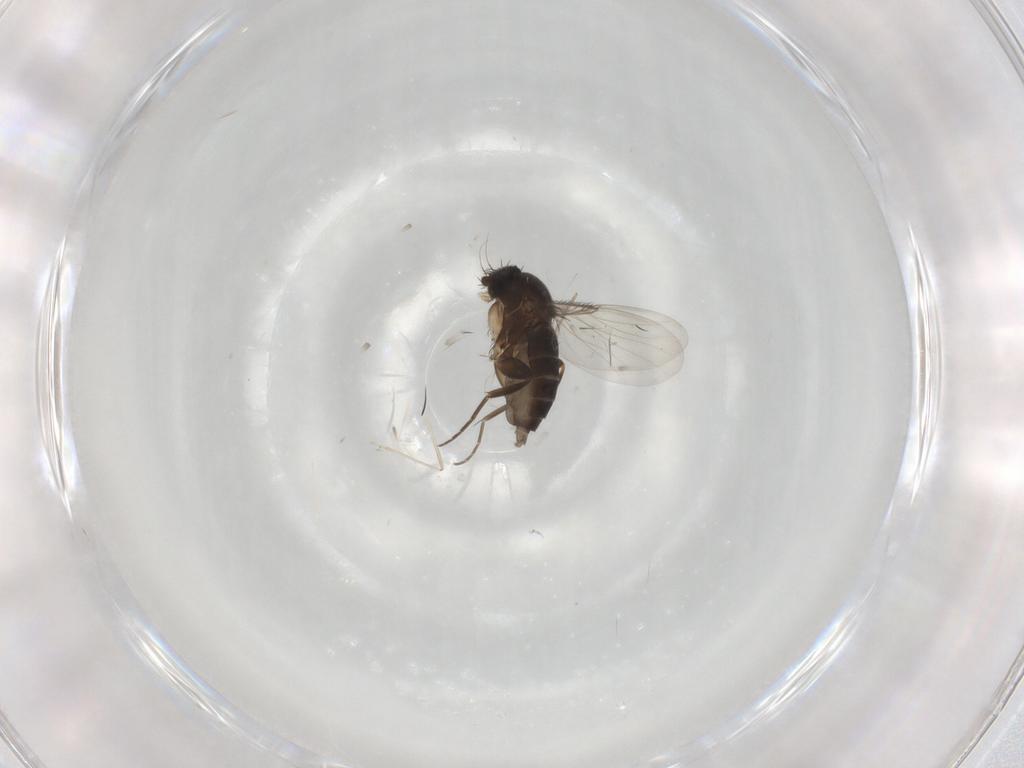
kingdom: Animalia
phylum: Arthropoda
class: Insecta
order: Diptera
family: Phoridae
